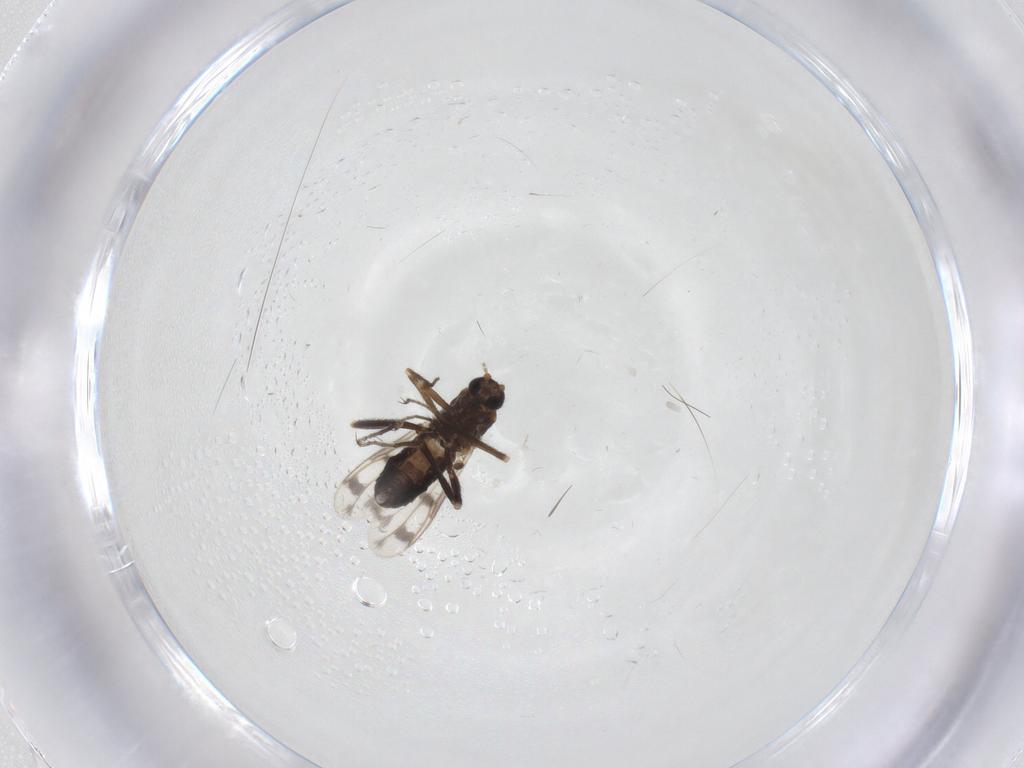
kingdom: Animalia
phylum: Arthropoda
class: Insecta
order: Diptera
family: Ceratopogonidae
